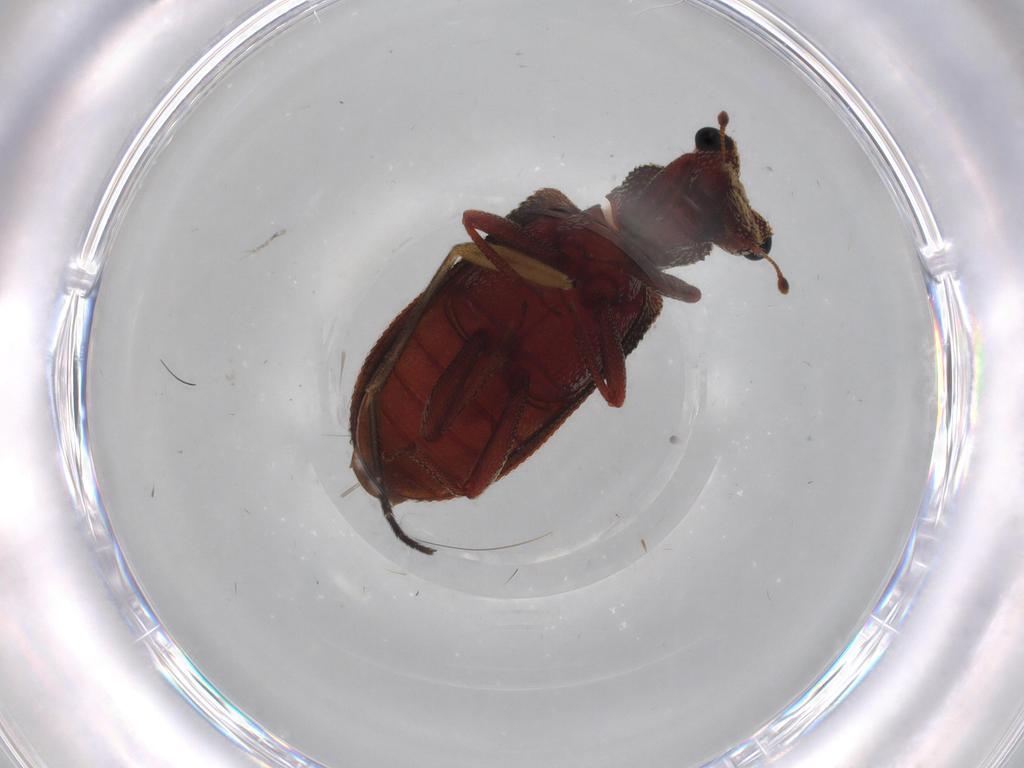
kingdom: Animalia
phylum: Arthropoda
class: Insecta
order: Coleoptera
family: Zopheridae
